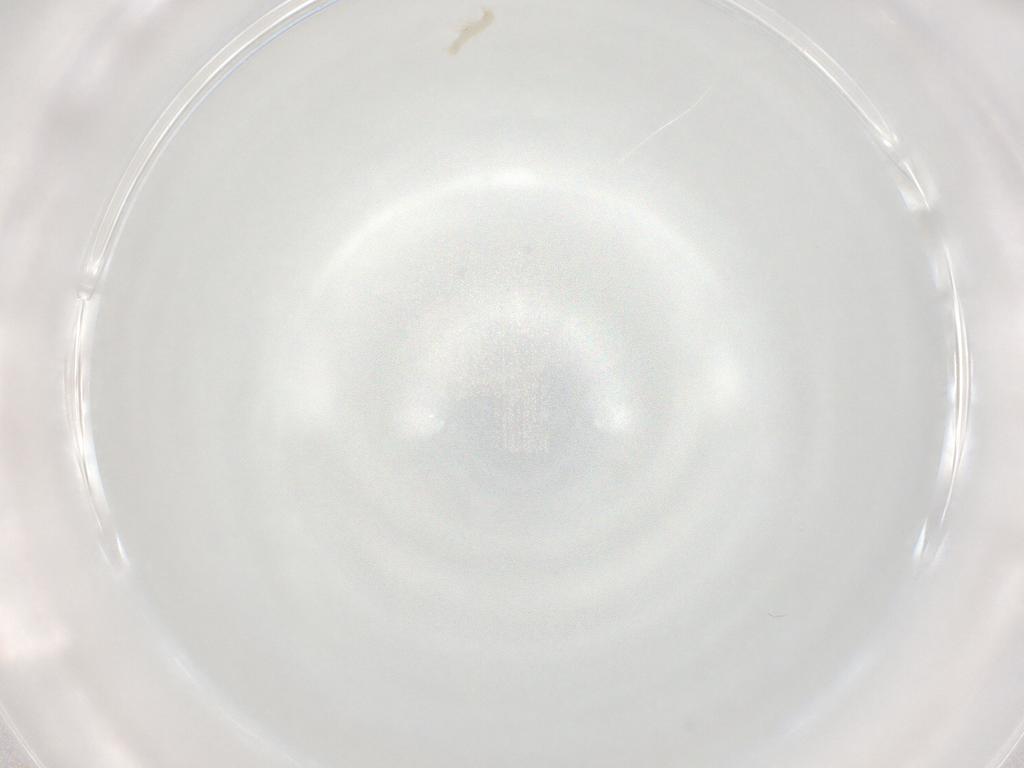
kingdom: Animalia
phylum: Arthropoda
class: Insecta
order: Diptera
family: Anthomyiidae
